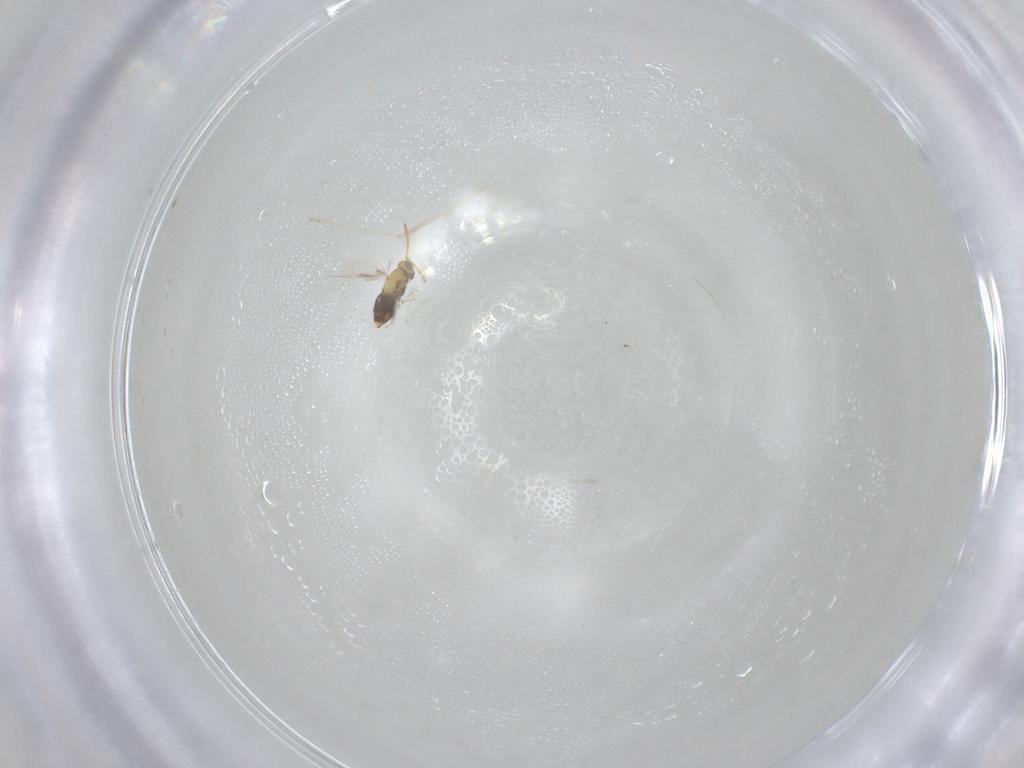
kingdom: Animalia
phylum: Arthropoda
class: Insecta
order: Hymenoptera
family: Aphelinidae
